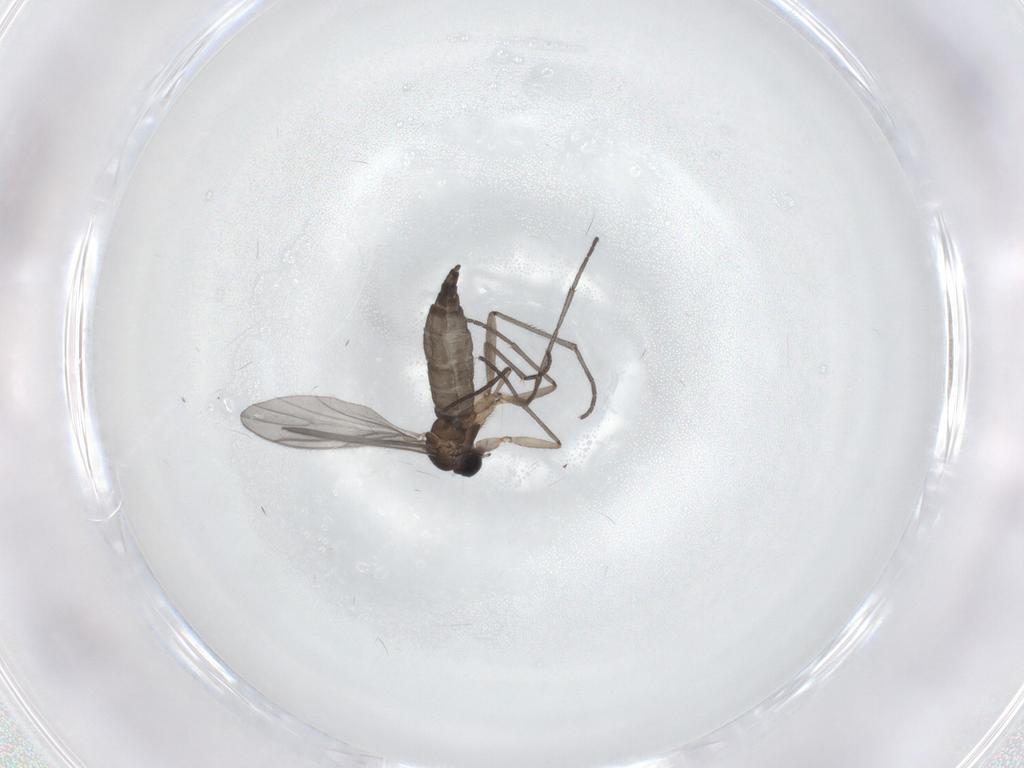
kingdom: Animalia
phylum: Arthropoda
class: Insecta
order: Diptera
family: Sciaridae
